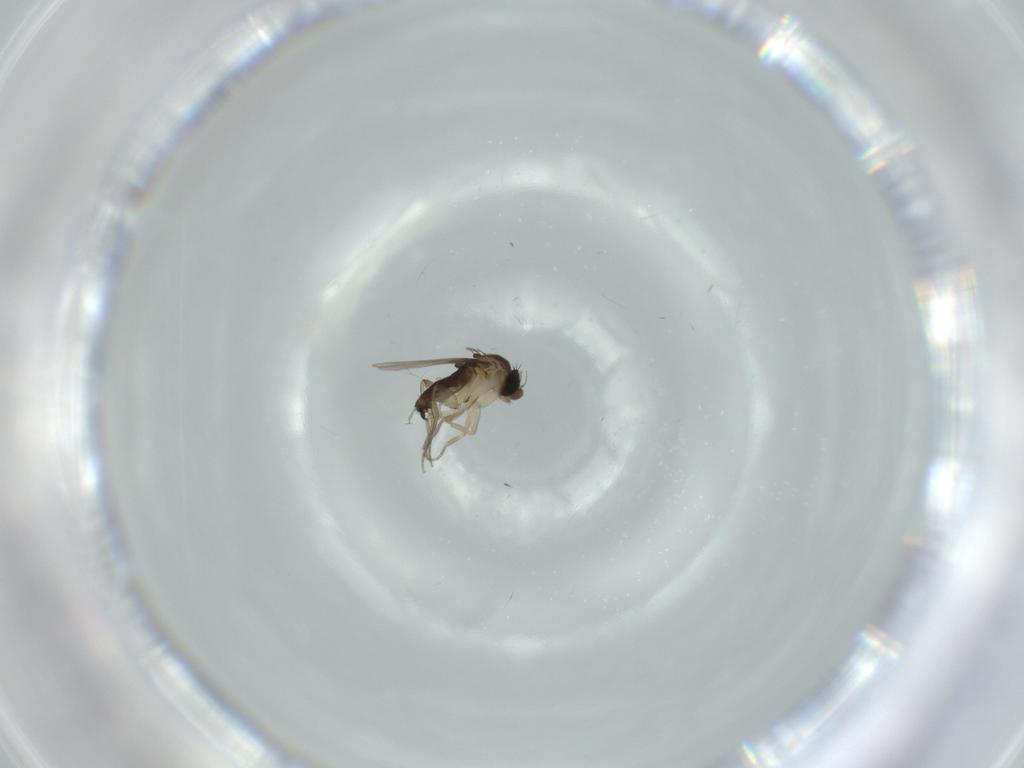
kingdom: Animalia
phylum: Arthropoda
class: Insecta
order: Diptera
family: Phoridae
